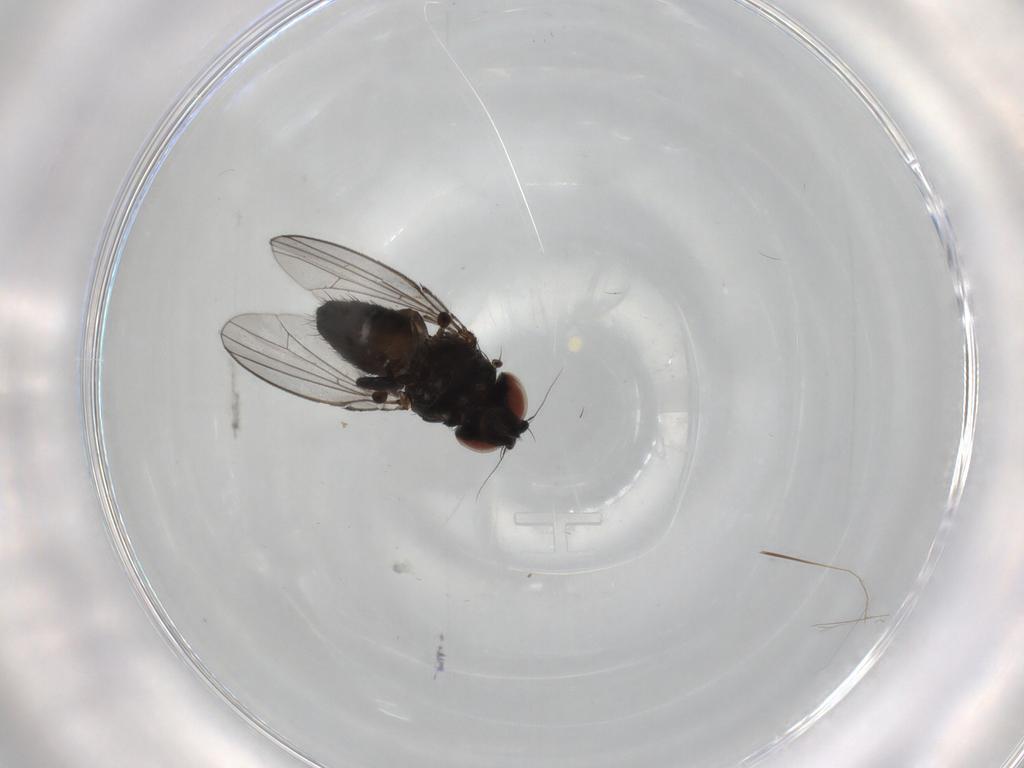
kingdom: Animalia
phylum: Arthropoda
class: Insecta
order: Diptera
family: Milichiidae
